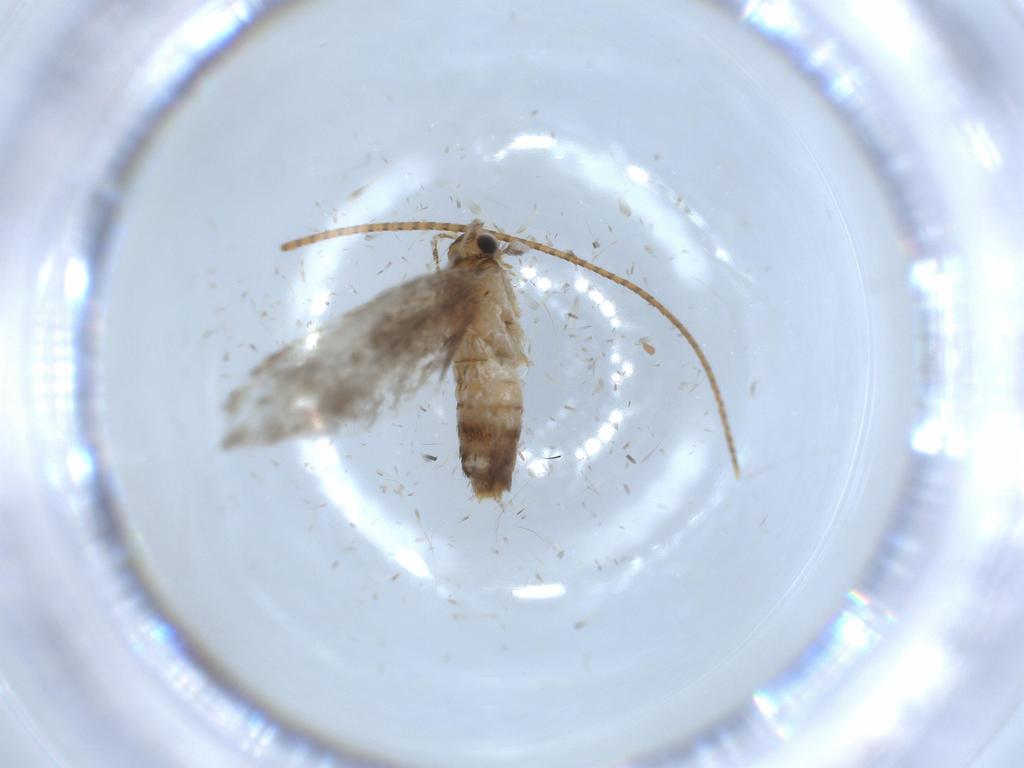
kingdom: Animalia
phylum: Arthropoda
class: Insecta
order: Lepidoptera
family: Tineidae
